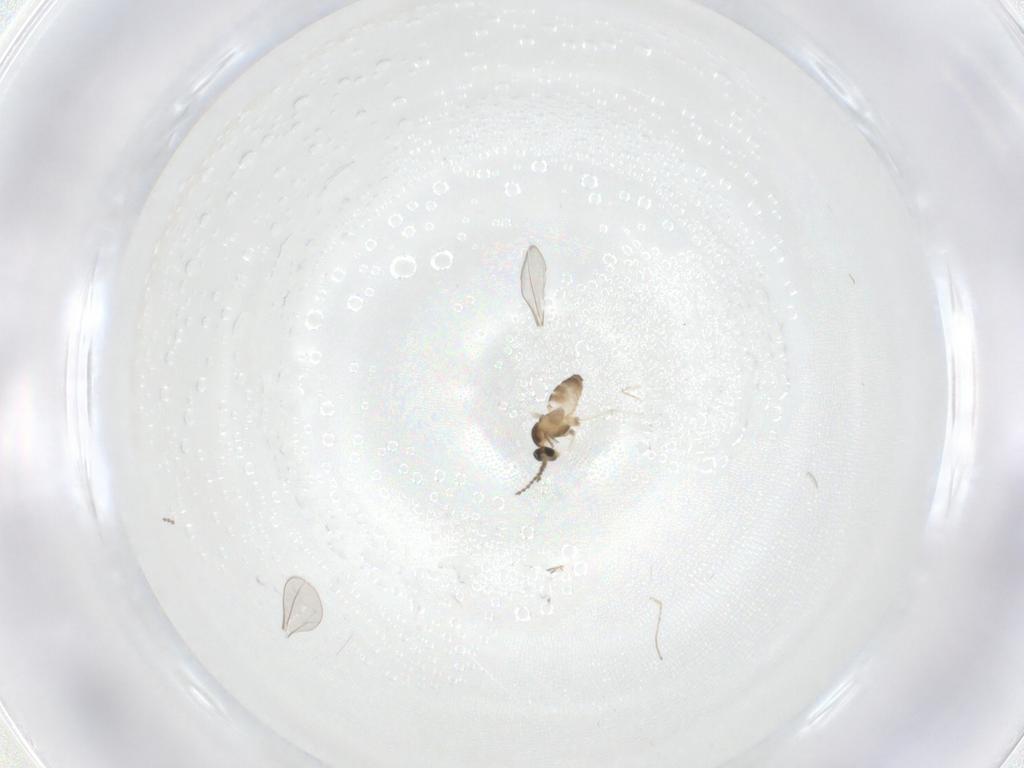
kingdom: Animalia
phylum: Arthropoda
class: Insecta
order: Diptera
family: Cecidomyiidae
